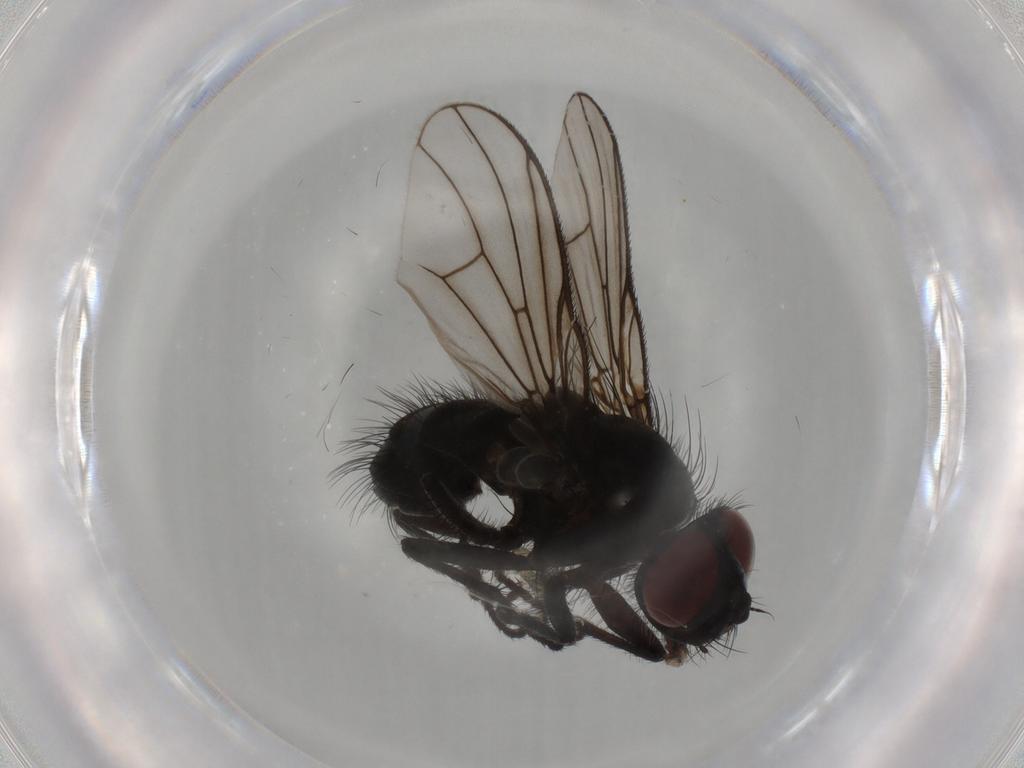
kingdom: Animalia
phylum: Arthropoda
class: Insecta
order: Diptera
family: Muscidae
